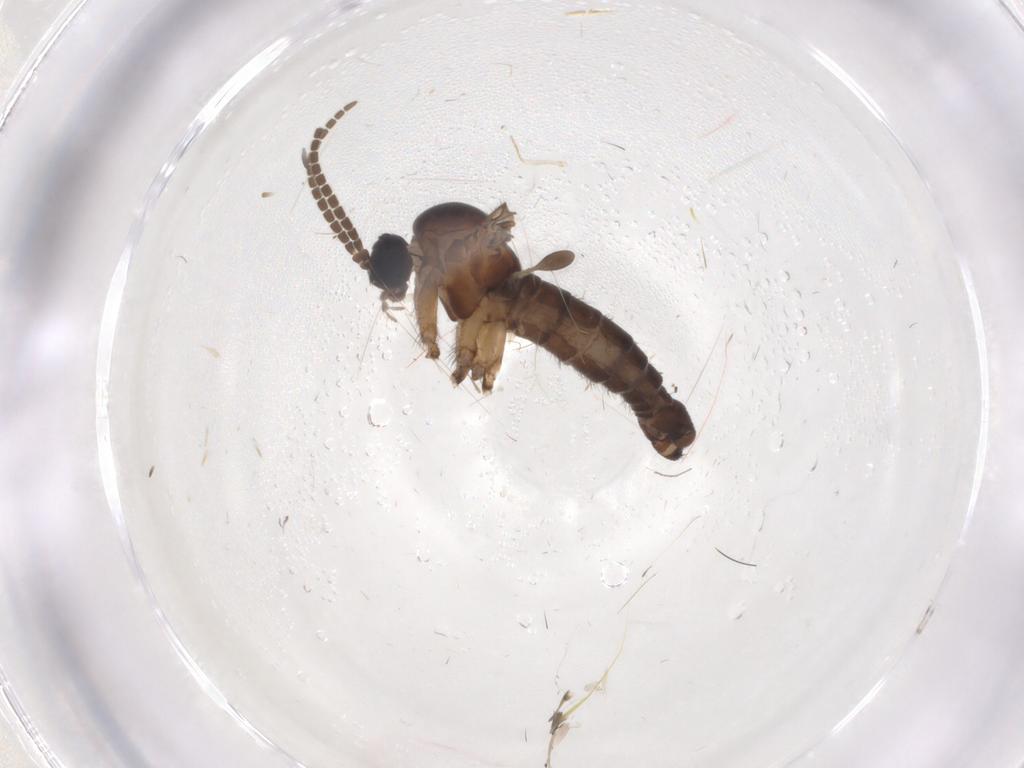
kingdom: Animalia
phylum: Arthropoda
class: Insecta
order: Diptera
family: Sciaridae
